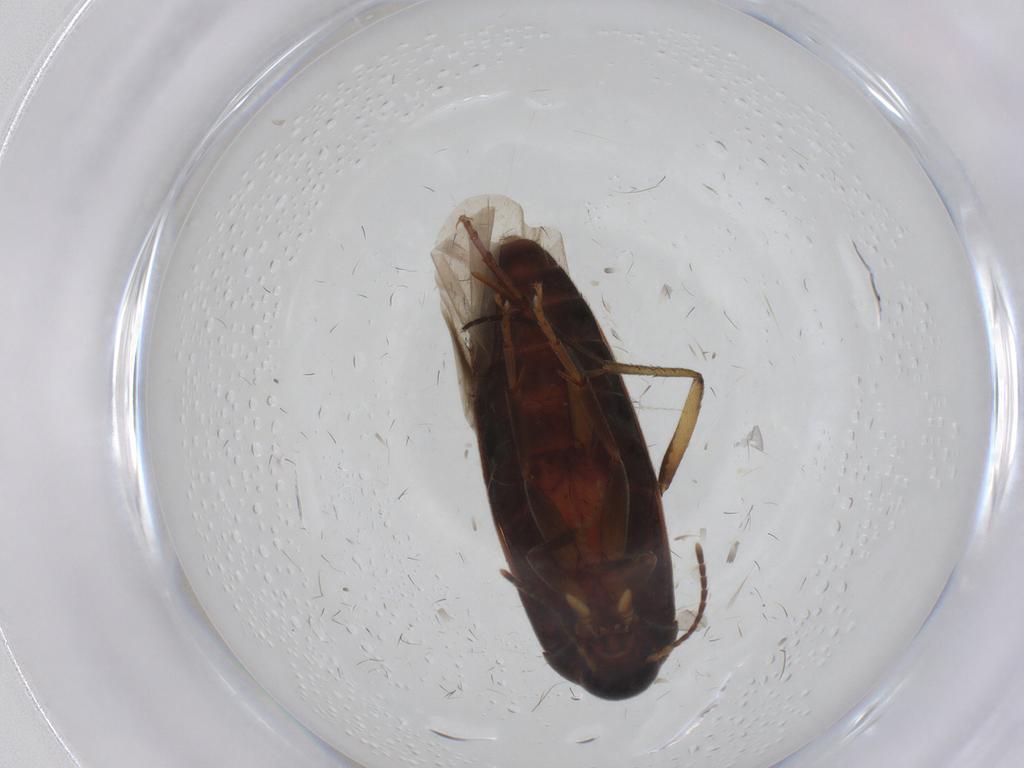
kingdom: Animalia
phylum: Arthropoda
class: Insecta
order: Coleoptera
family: Melandryidae
